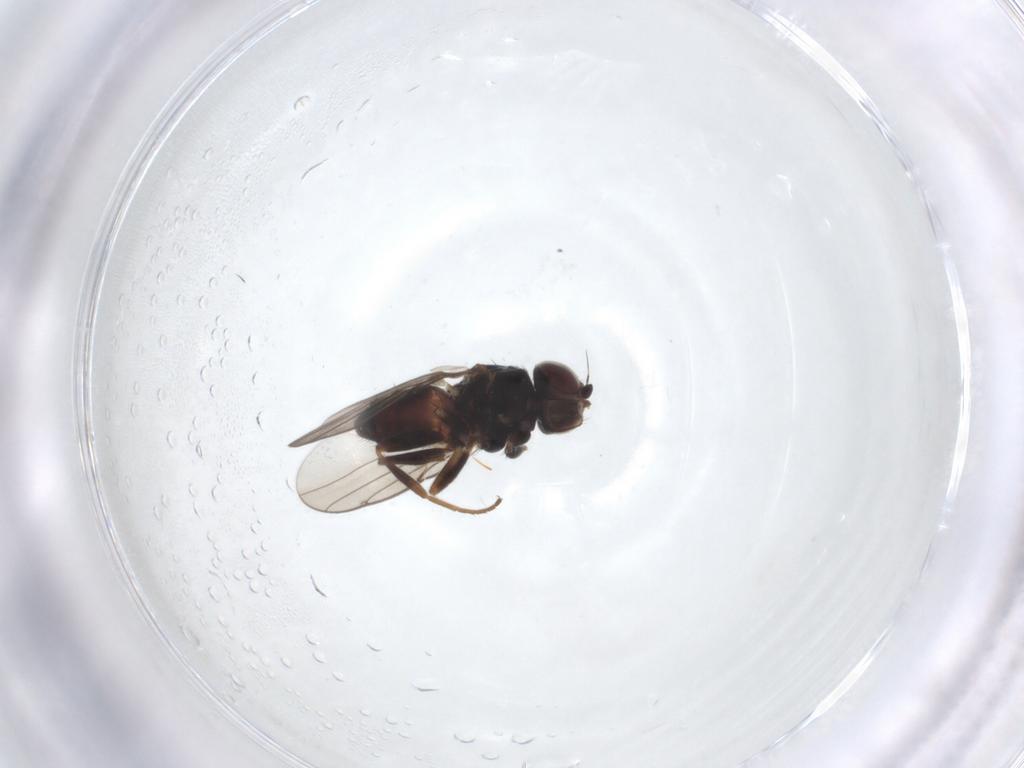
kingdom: Animalia
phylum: Arthropoda
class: Insecta
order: Diptera
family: Chloropidae
